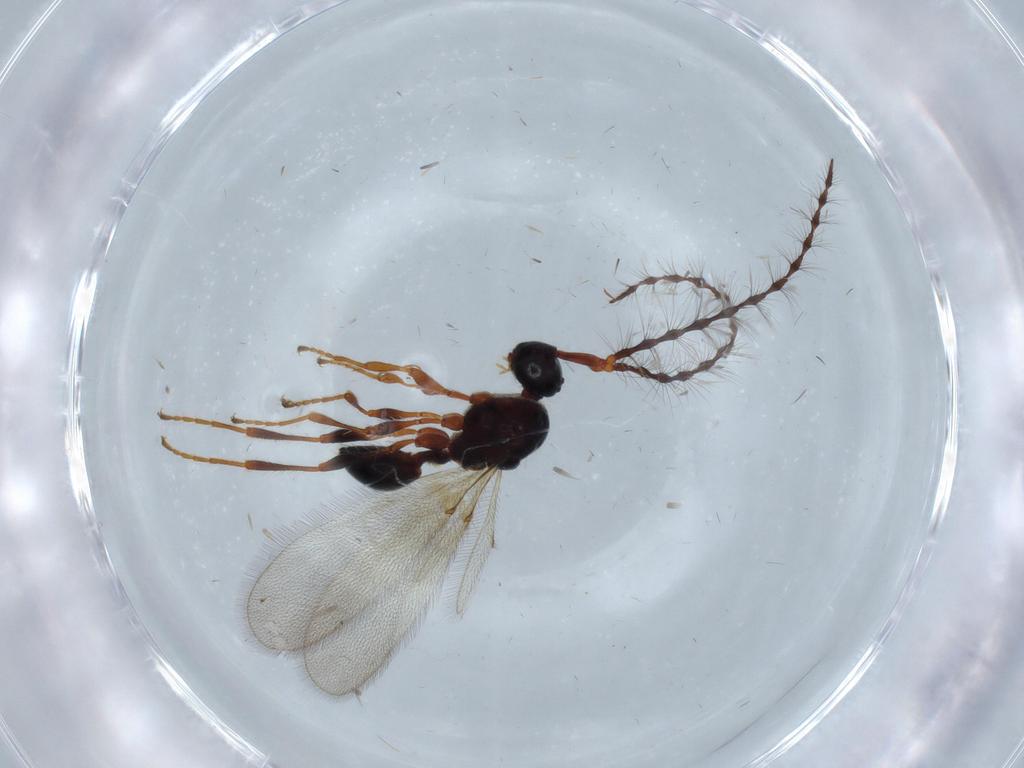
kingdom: Animalia
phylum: Arthropoda
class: Insecta
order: Hymenoptera
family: Diapriidae
